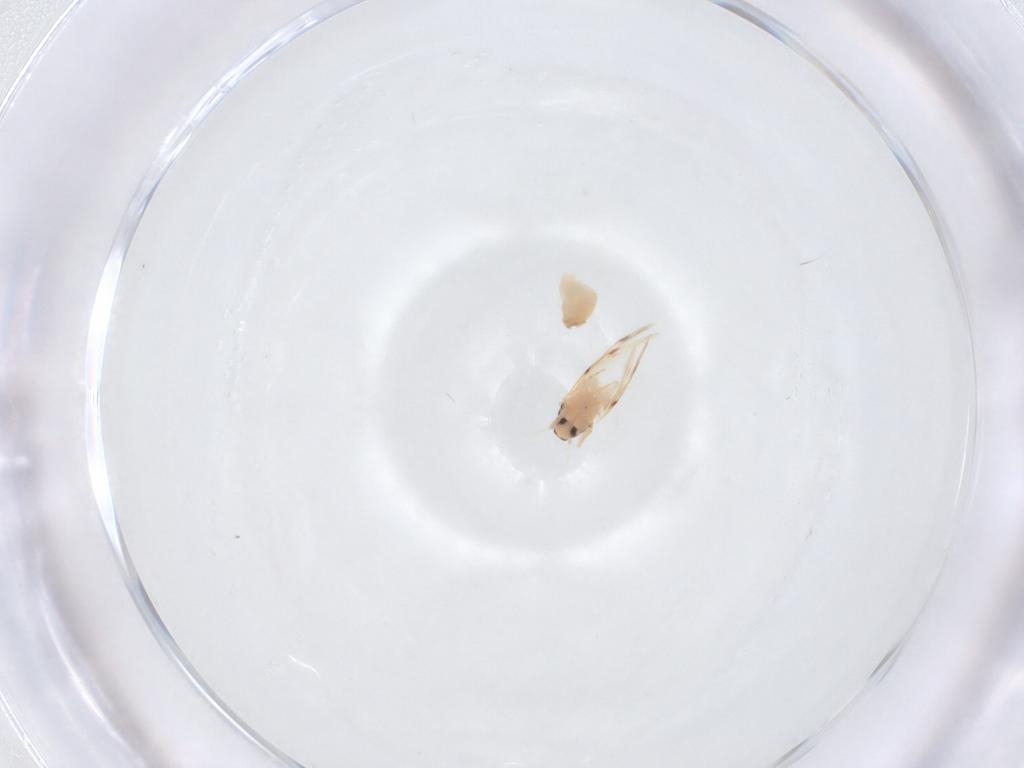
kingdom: Animalia
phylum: Arthropoda
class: Insecta
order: Hemiptera
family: Aleyrodidae
